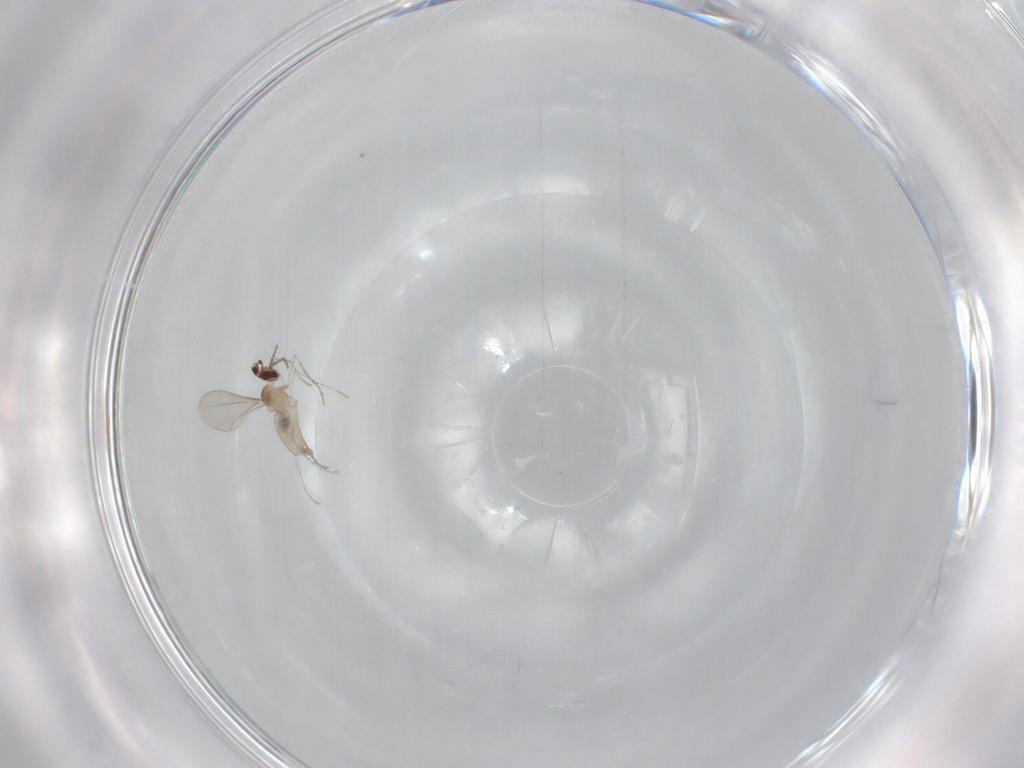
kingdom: Animalia
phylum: Arthropoda
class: Insecta
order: Diptera
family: Cecidomyiidae
